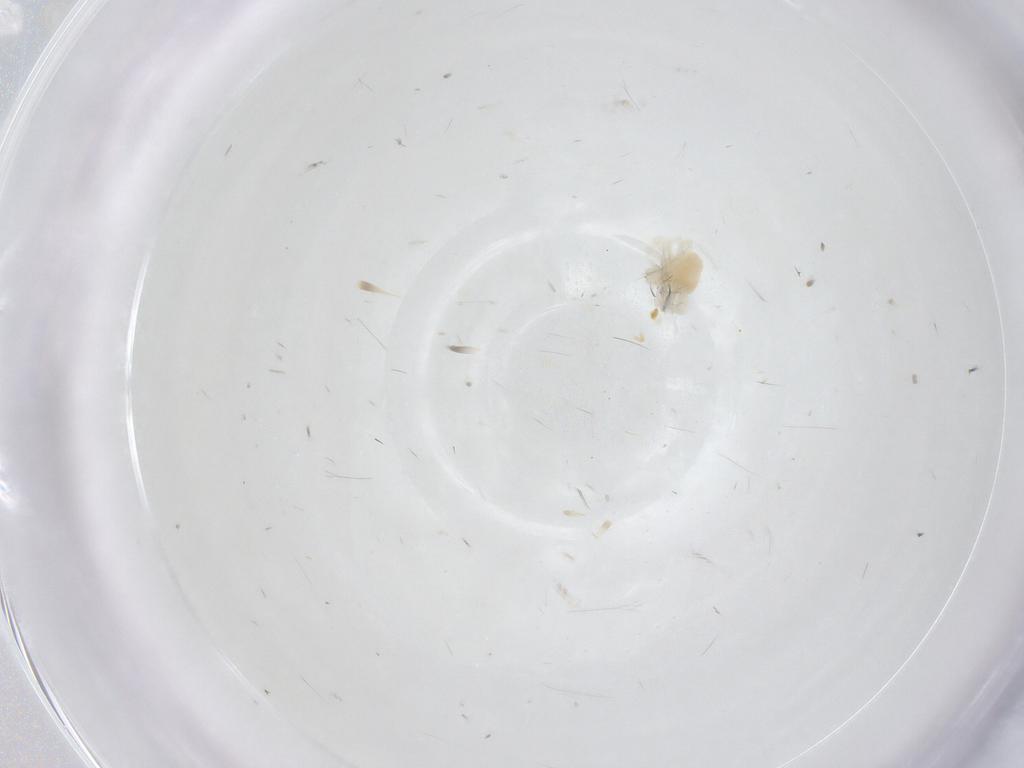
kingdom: Animalia
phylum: Arthropoda
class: Arachnida
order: Trombidiformes
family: Anystidae
